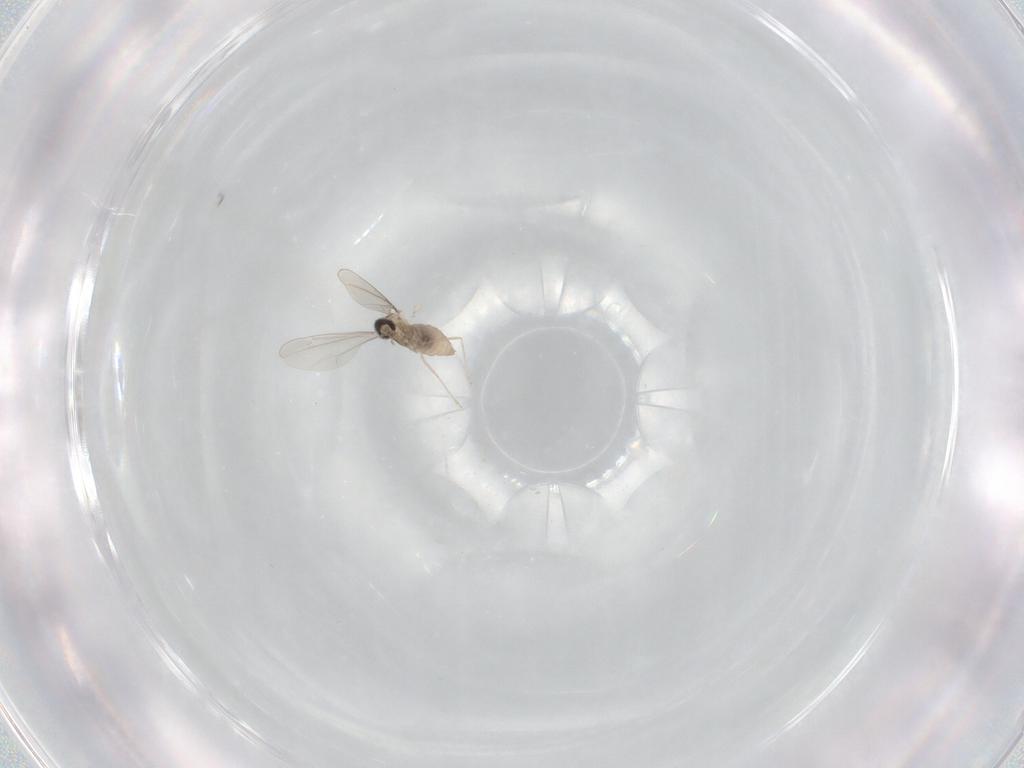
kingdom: Animalia
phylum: Arthropoda
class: Insecta
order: Diptera
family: Cecidomyiidae
